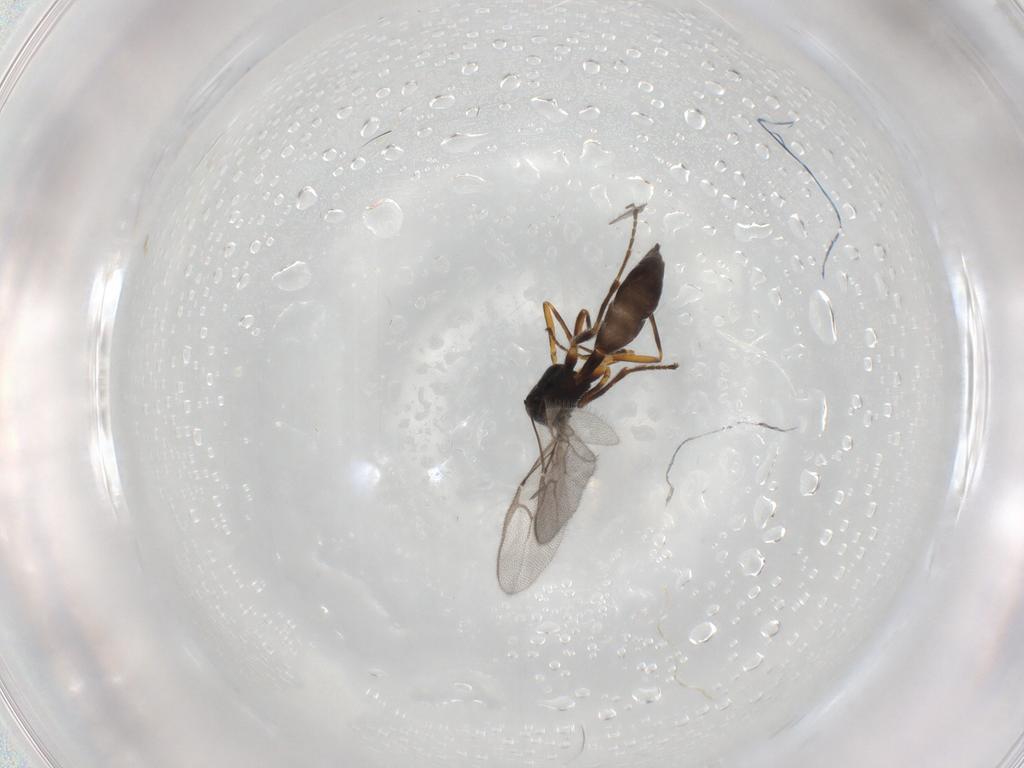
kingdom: Animalia
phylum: Arthropoda
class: Insecta
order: Hymenoptera
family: Braconidae
